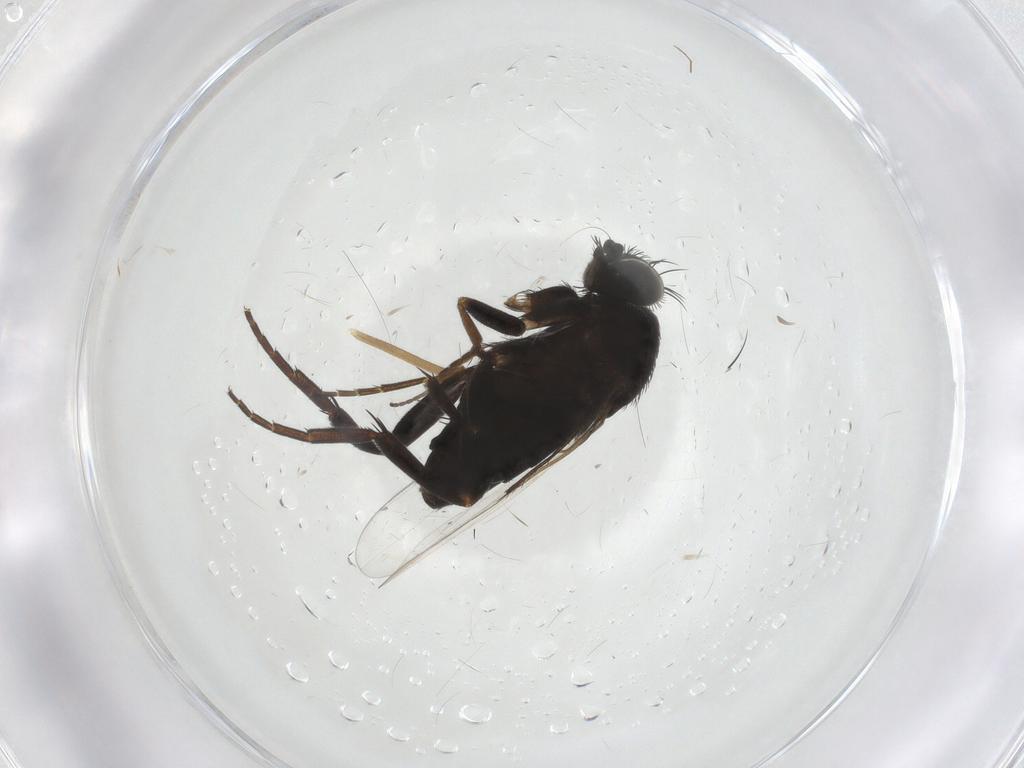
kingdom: Animalia
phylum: Arthropoda
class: Insecta
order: Diptera
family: Phoridae
